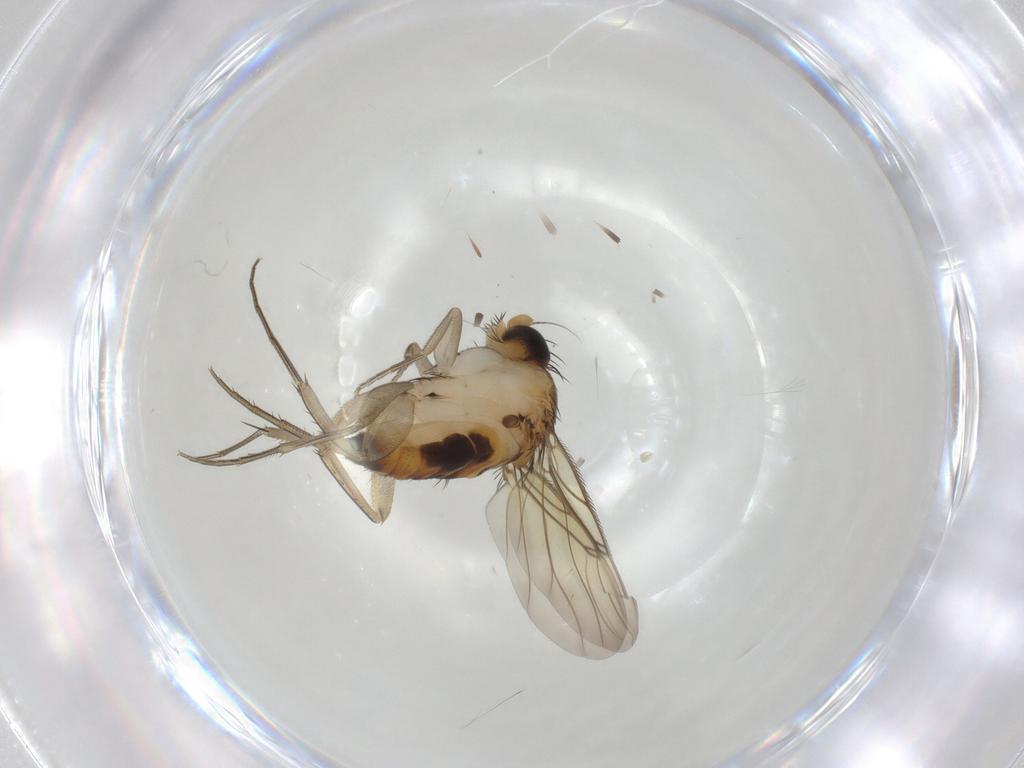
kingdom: Animalia
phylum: Arthropoda
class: Insecta
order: Diptera
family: Phoridae
